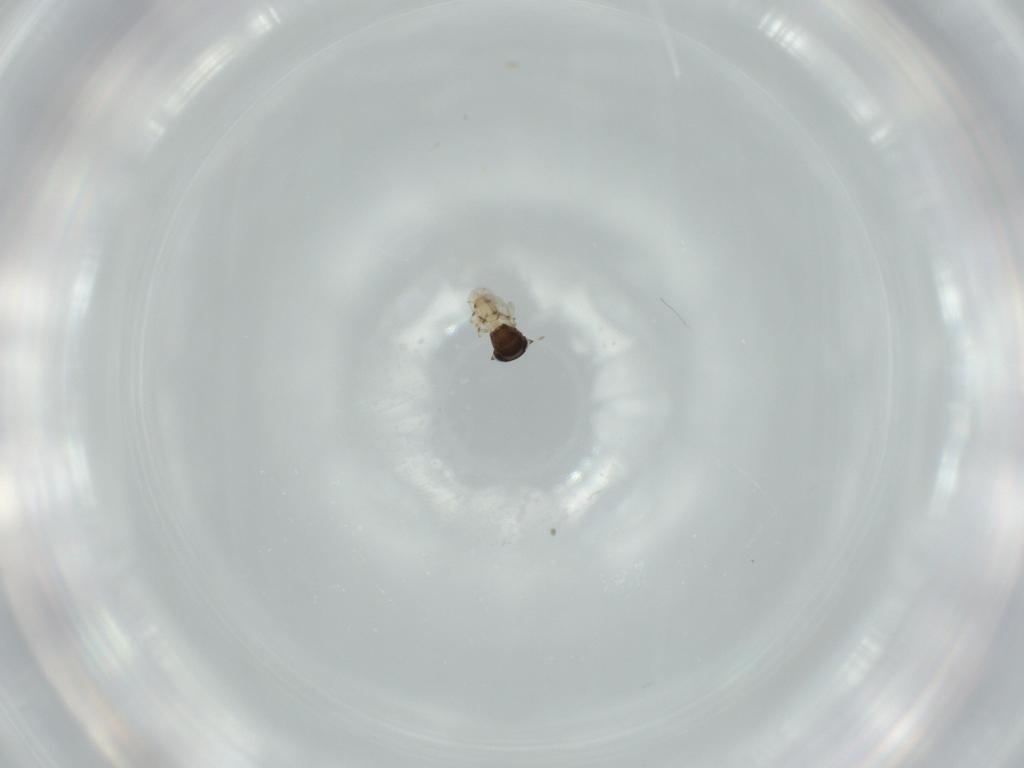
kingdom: Animalia
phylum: Arthropoda
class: Insecta
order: Hymenoptera
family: Scelionidae
